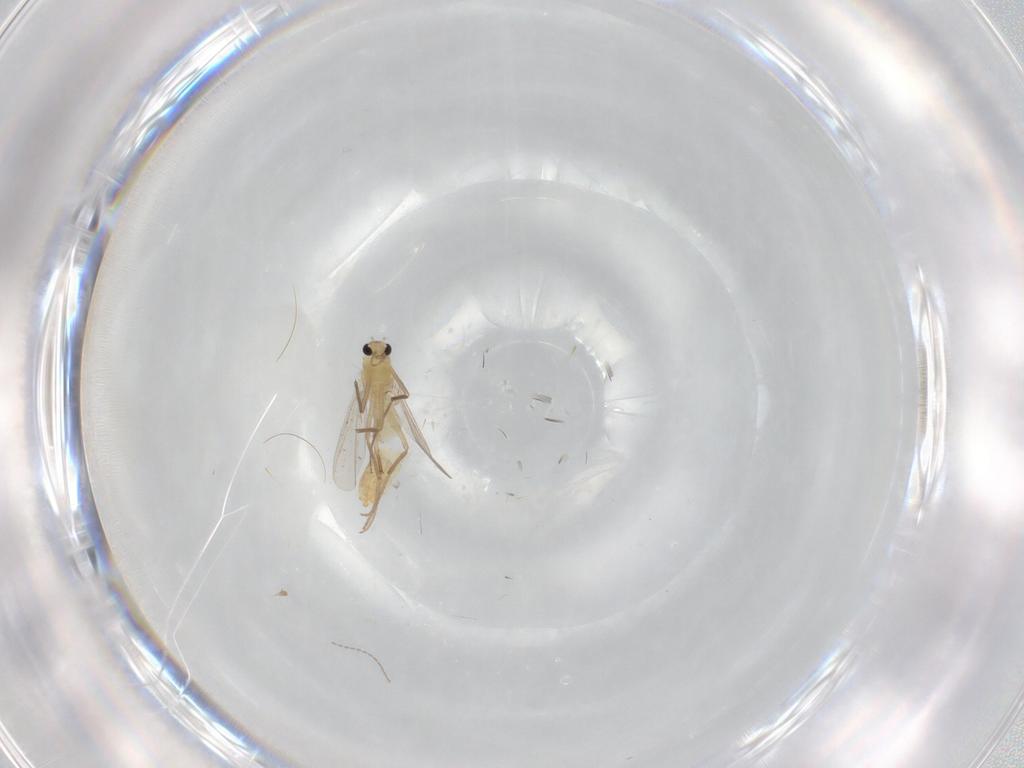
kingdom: Animalia
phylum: Arthropoda
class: Insecta
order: Diptera
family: Chironomidae
